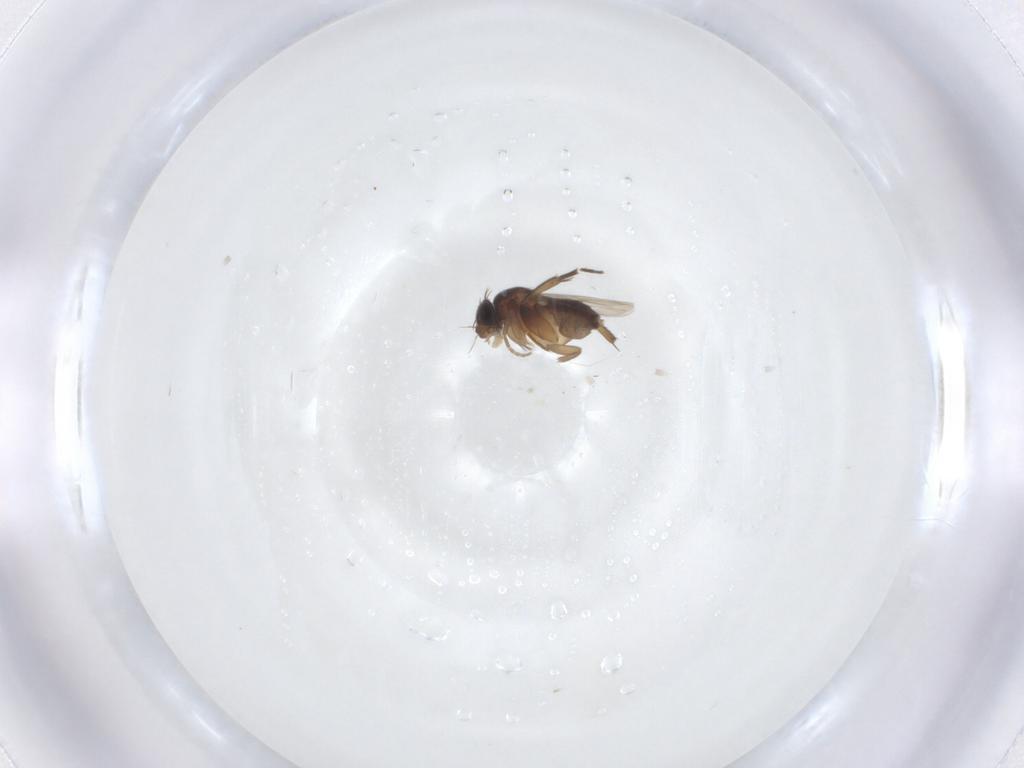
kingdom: Animalia
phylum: Arthropoda
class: Insecta
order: Diptera
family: Phoridae
